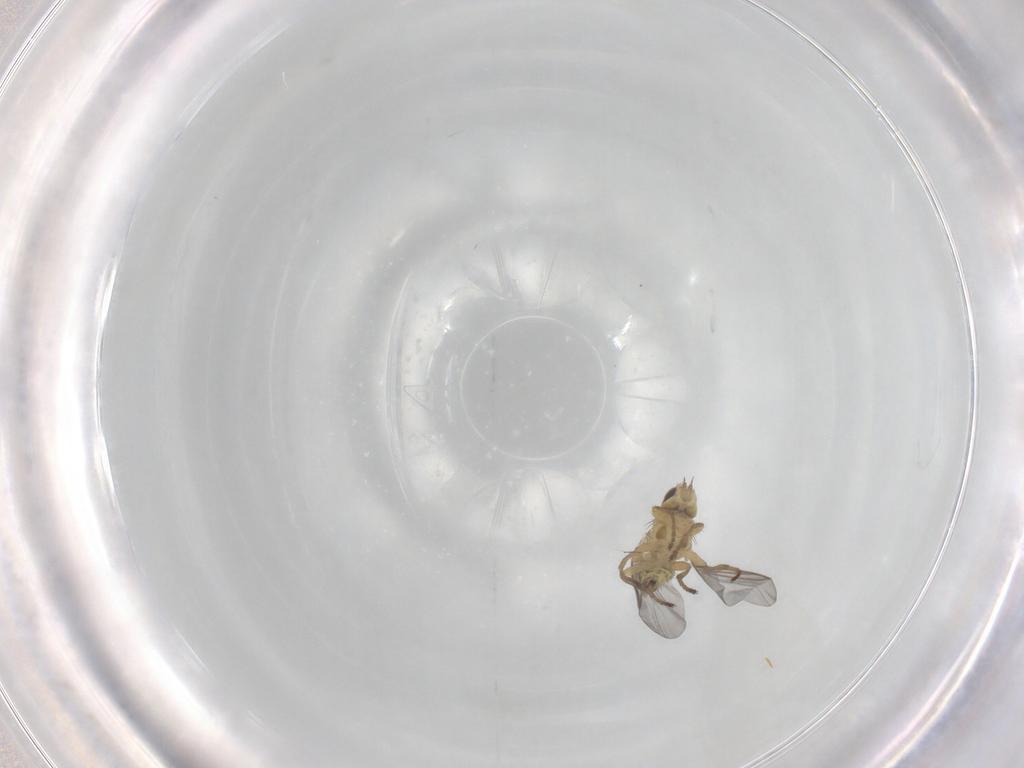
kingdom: Animalia
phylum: Arthropoda
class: Insecta
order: Diptera
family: Agromyzidae
